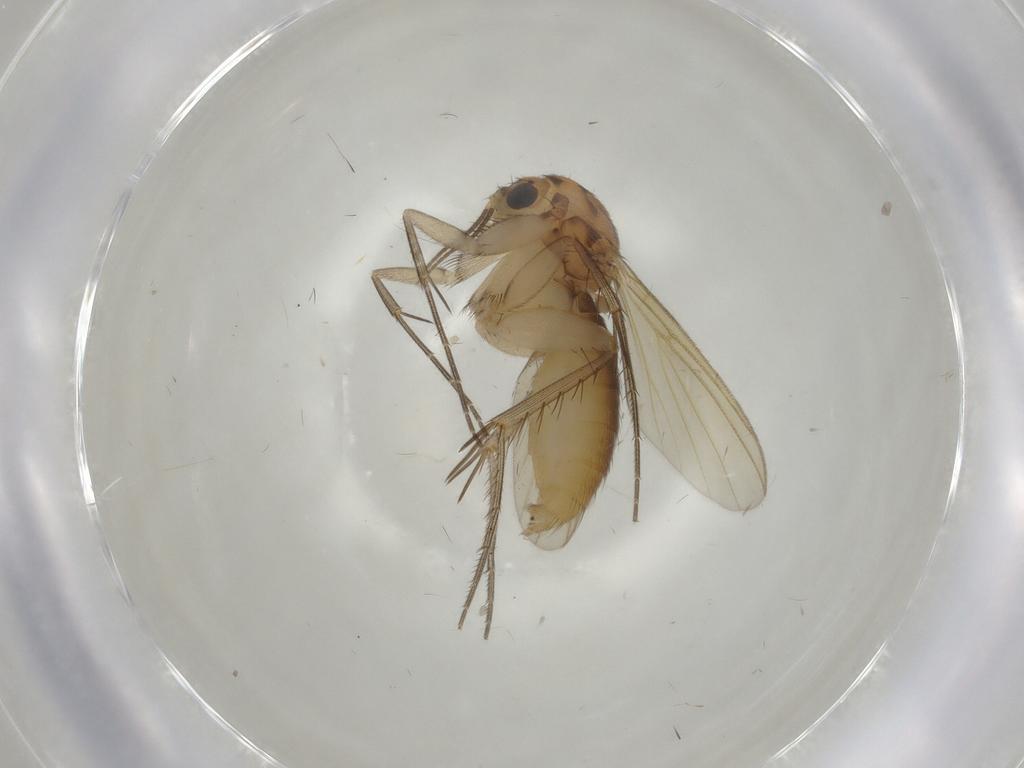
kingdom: Animalia
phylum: Arthropoda
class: Insecta
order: Diptera
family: Mycetophilidae
